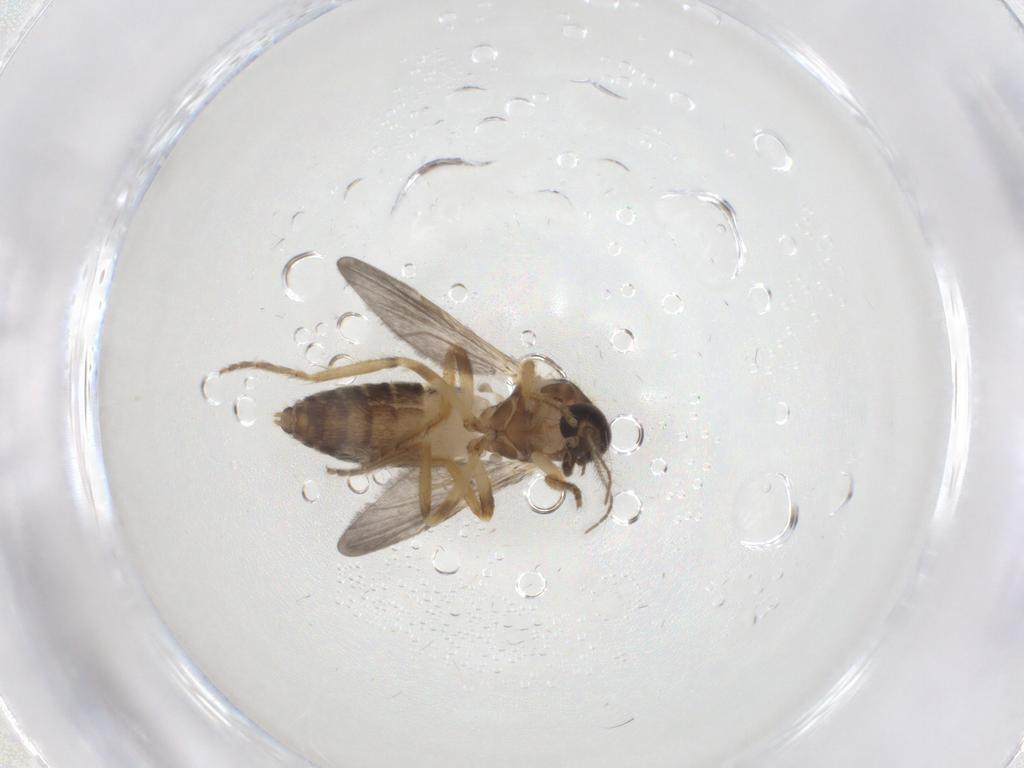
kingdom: Animalia
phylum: Arthropoda
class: Insecta
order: Diptera
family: Ceratopogonidae
